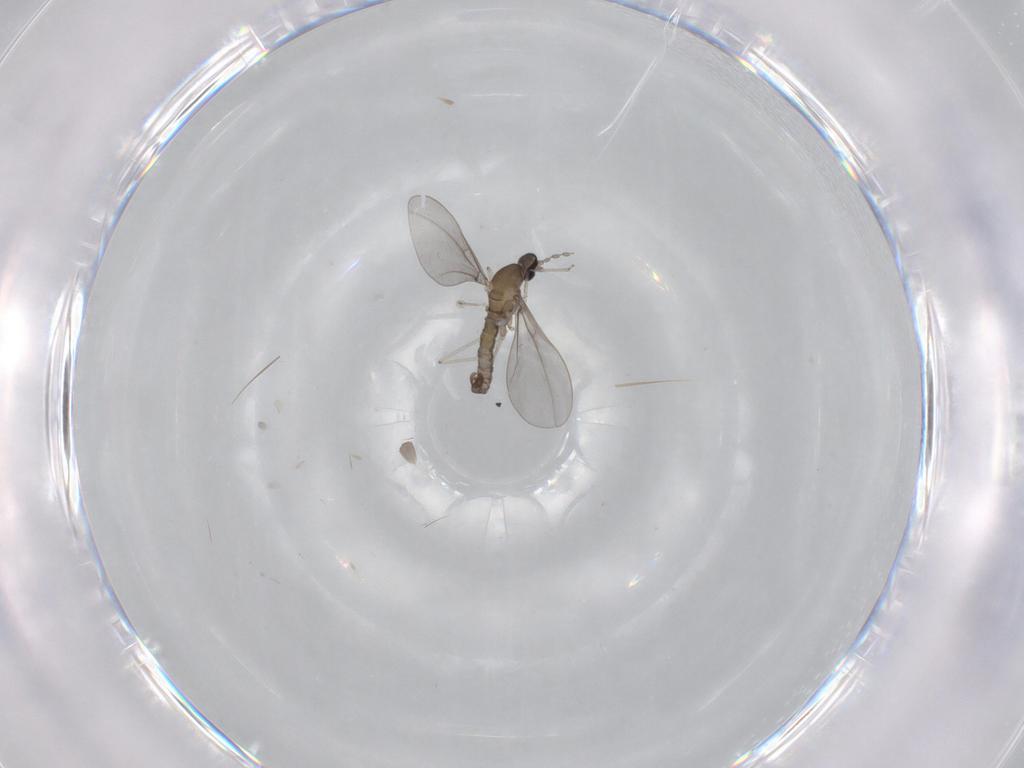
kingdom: Animalia
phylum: Arthropoda
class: Insecta
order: Diptera
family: Cecidomyiidae
